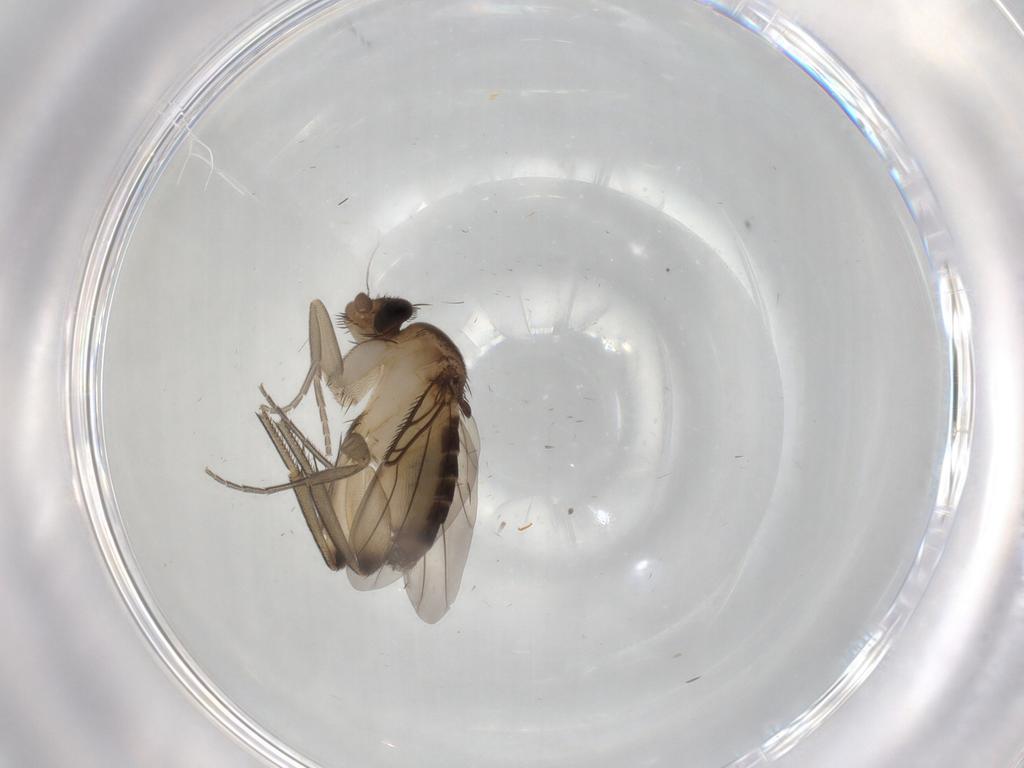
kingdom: Animalia
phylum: Arthropoda
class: Insecta
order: Diptera
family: Phoridae
